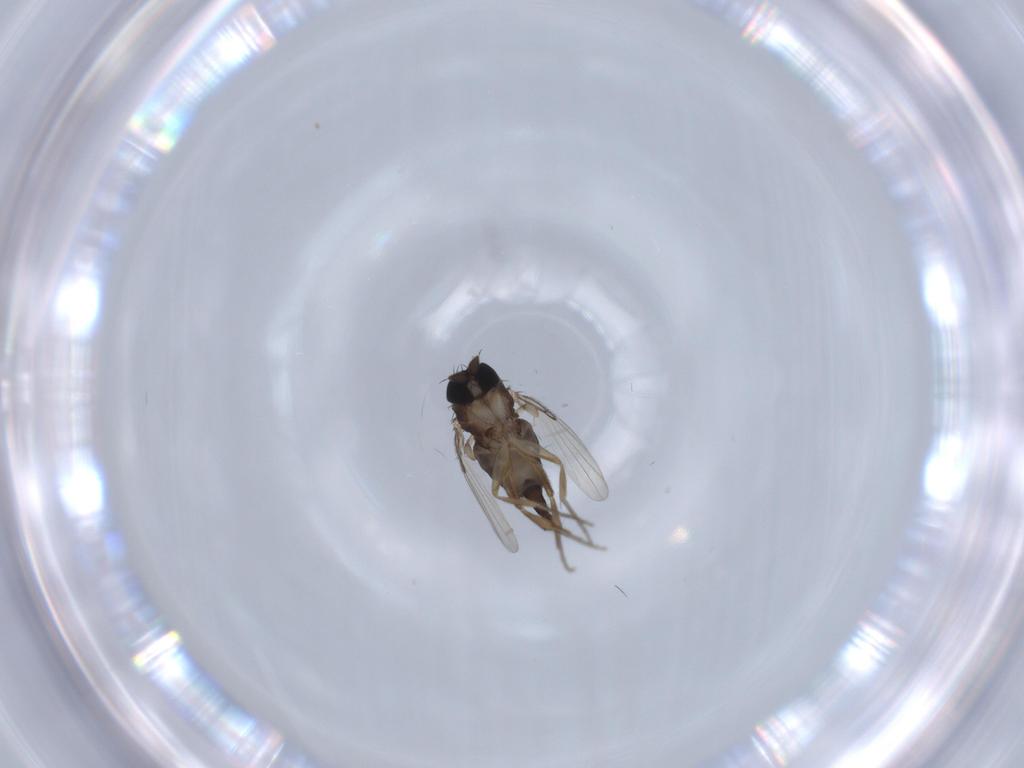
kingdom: Animalia
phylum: Arthropoda
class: Insecta
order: Diptera
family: Phoridae
